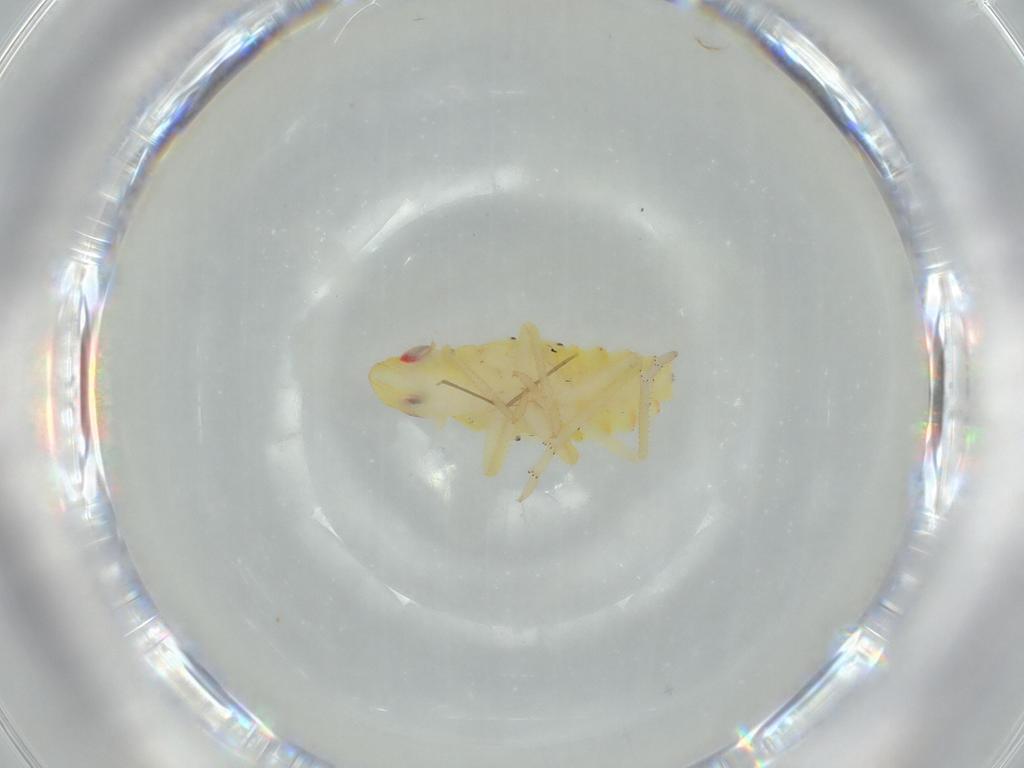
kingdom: Animalia
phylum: Arthropoda
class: Insecta
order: Hemiptera
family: Tropiduchidae
